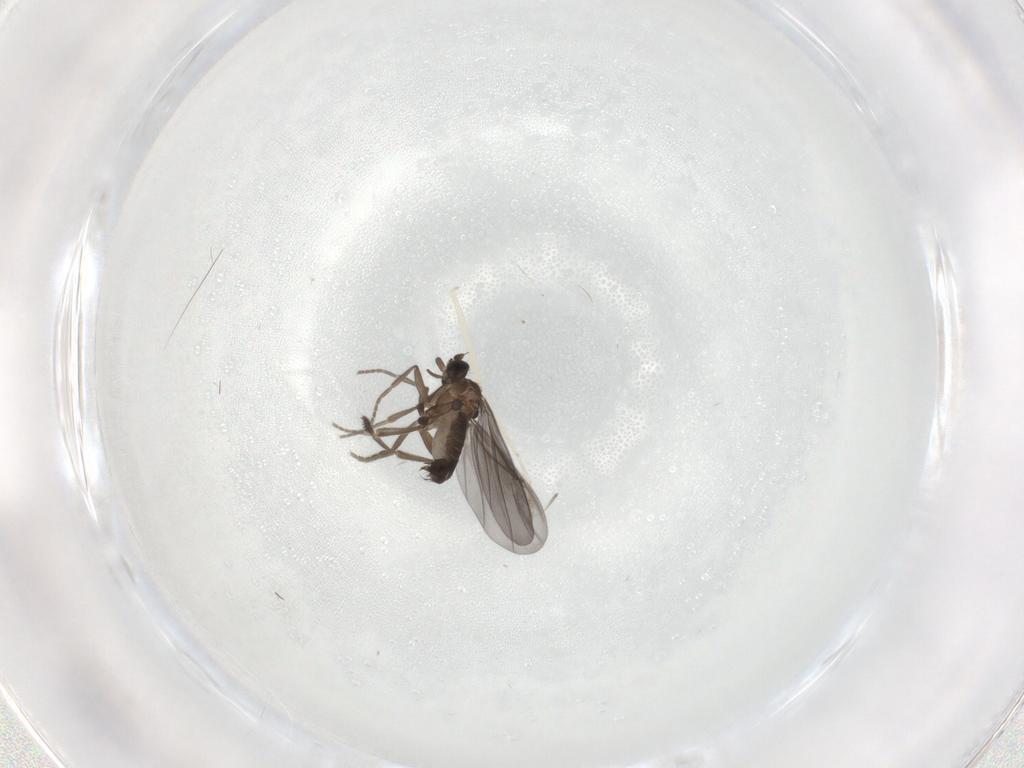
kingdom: Animalia
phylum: Arthropoda
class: Insecta
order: Diptera
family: Phoridae
